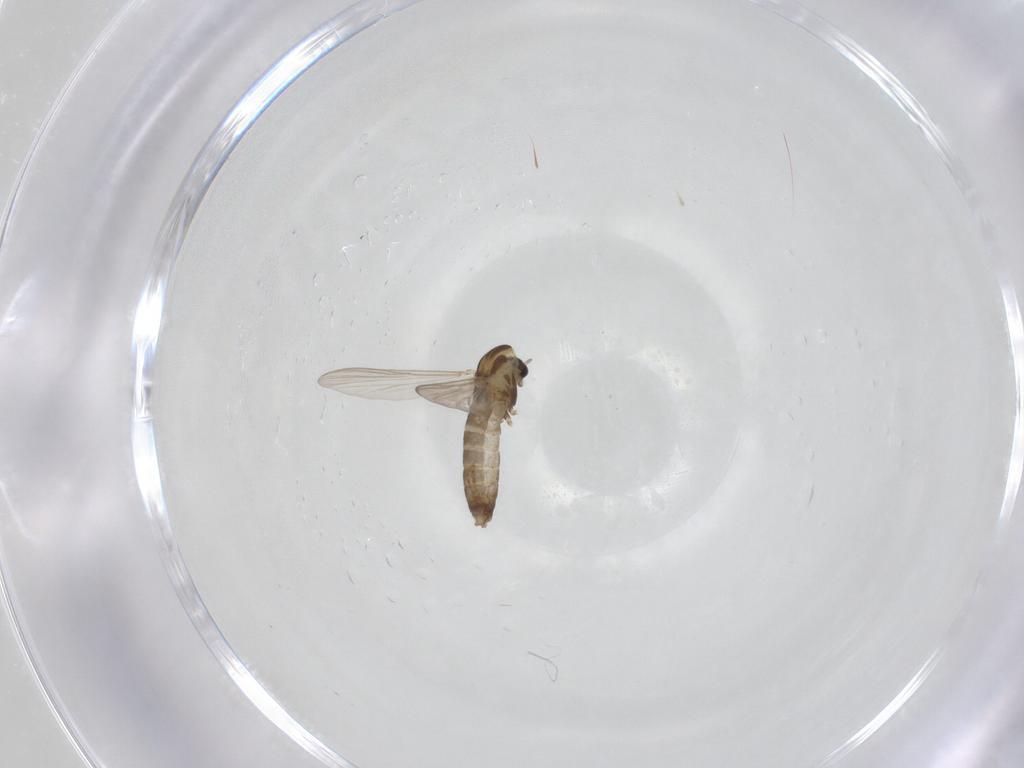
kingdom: Animalia
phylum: Arthropoda
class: Insecta
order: Diptera
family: Chironomidae
